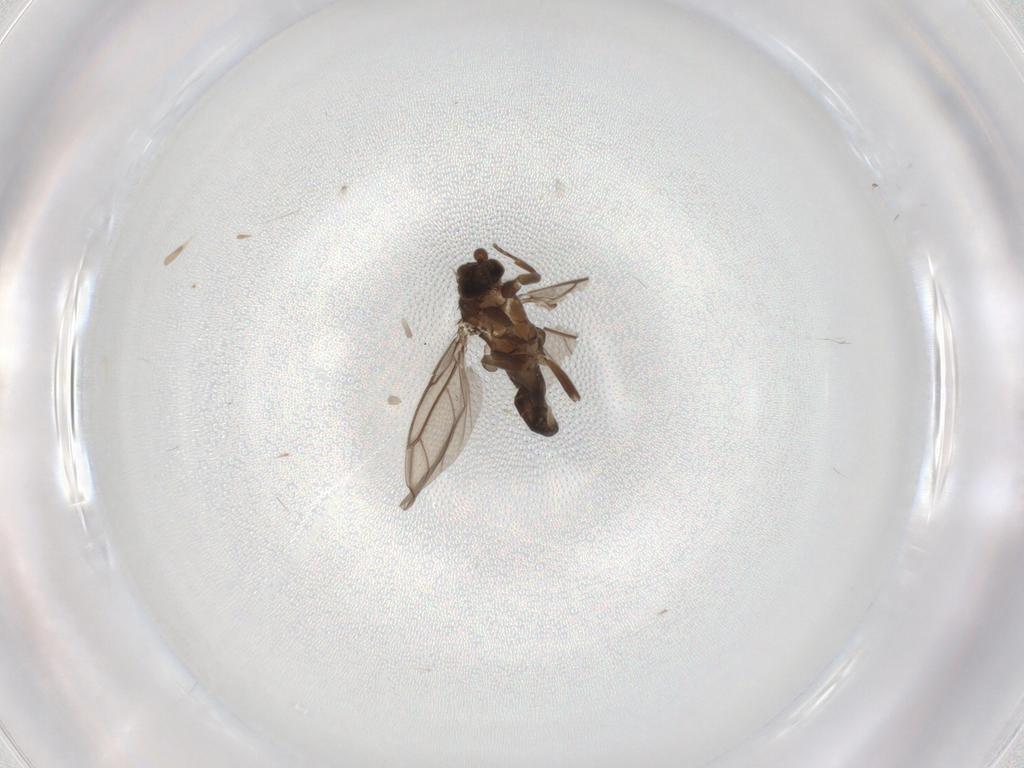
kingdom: Animalia
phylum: Arthropoda
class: Insecta
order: Diptera
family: Phoridae
